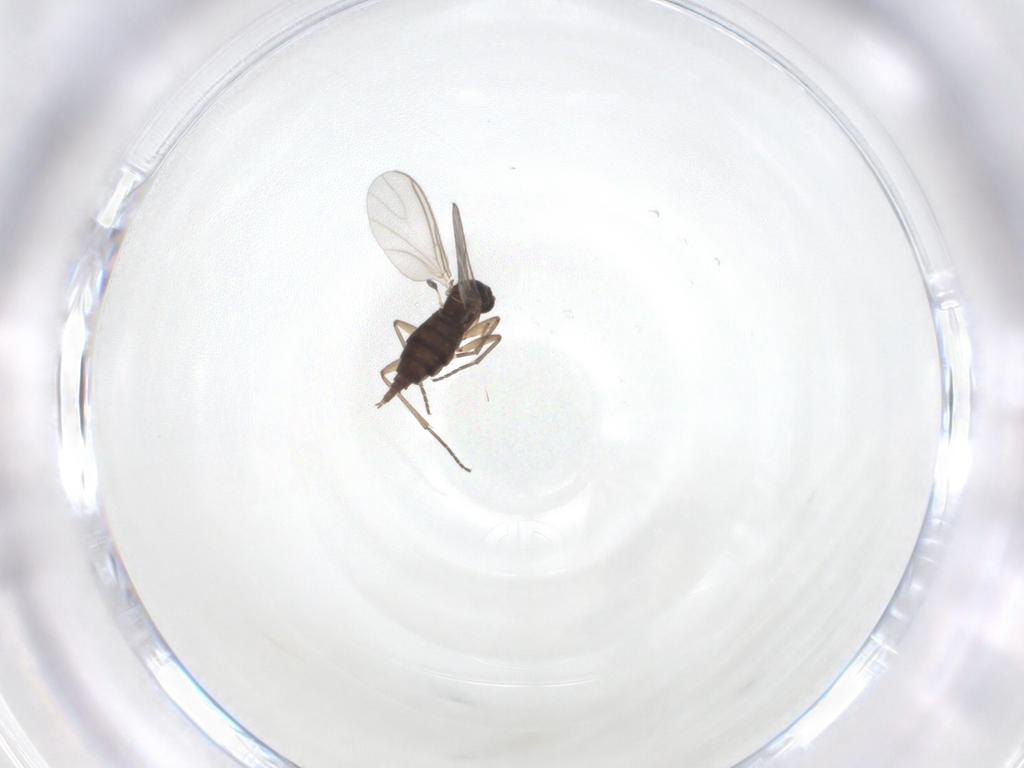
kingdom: Animalia
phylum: Arthropoda
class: Insecta
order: Diptera
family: Sciaridae
